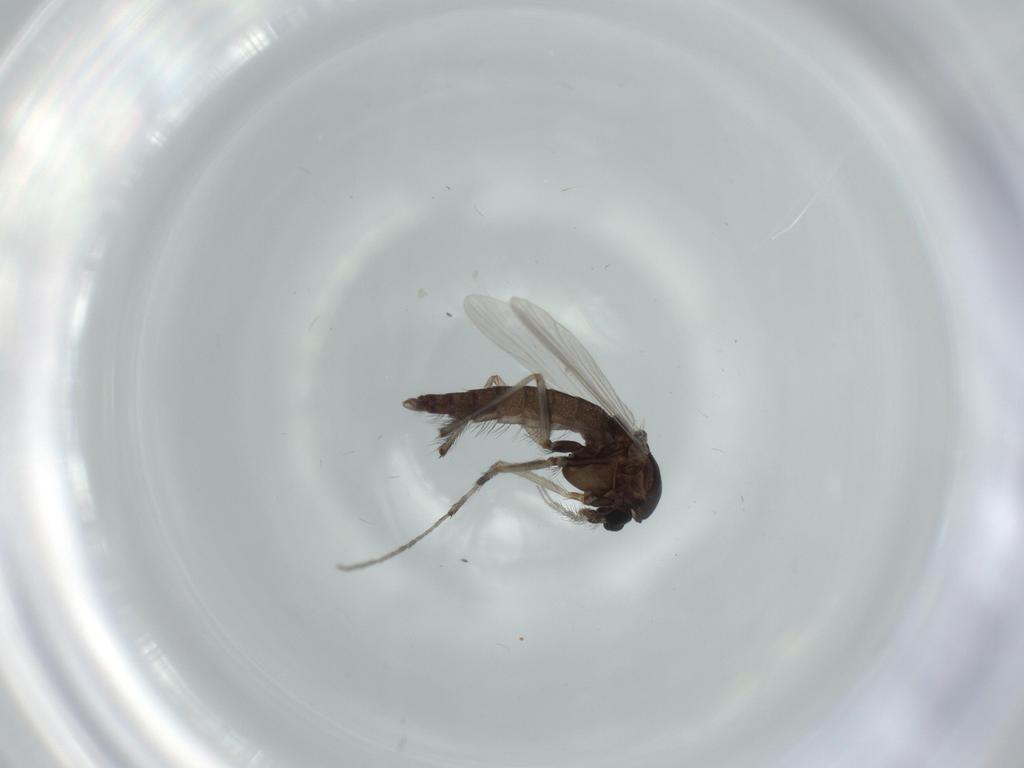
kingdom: Animalia
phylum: Arthropoda
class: Insecta
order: Diptera
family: Chironomidae
